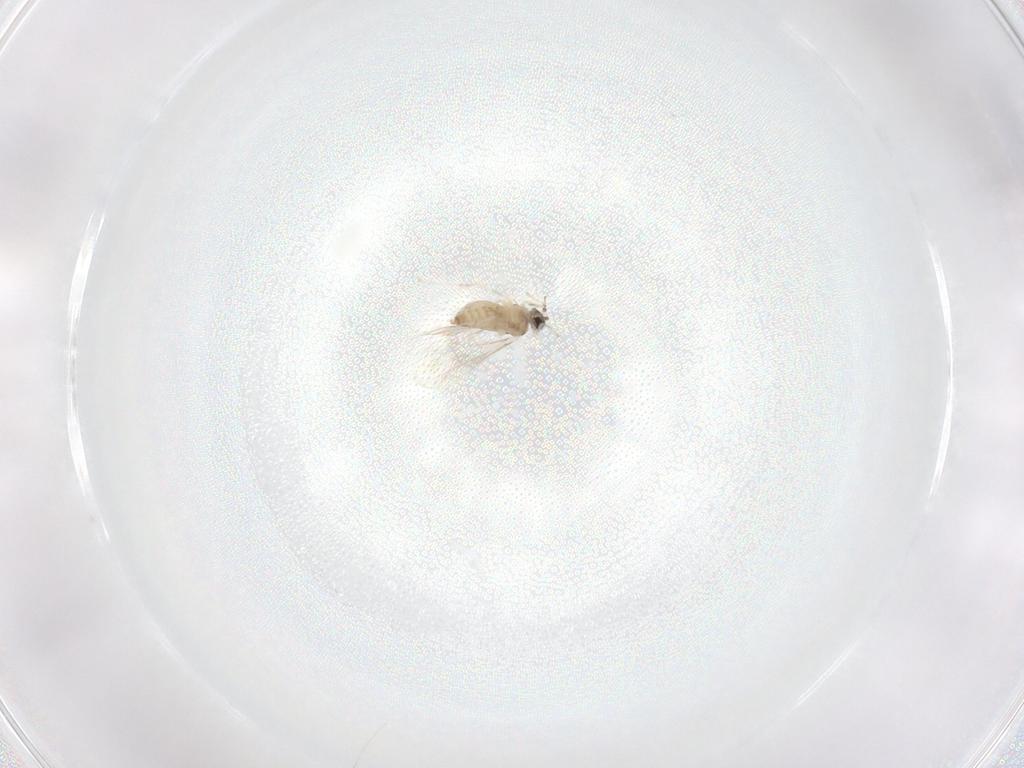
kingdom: Animalia
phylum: Arthropoda
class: Insecta
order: Diptera
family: Cecidomyiidae
